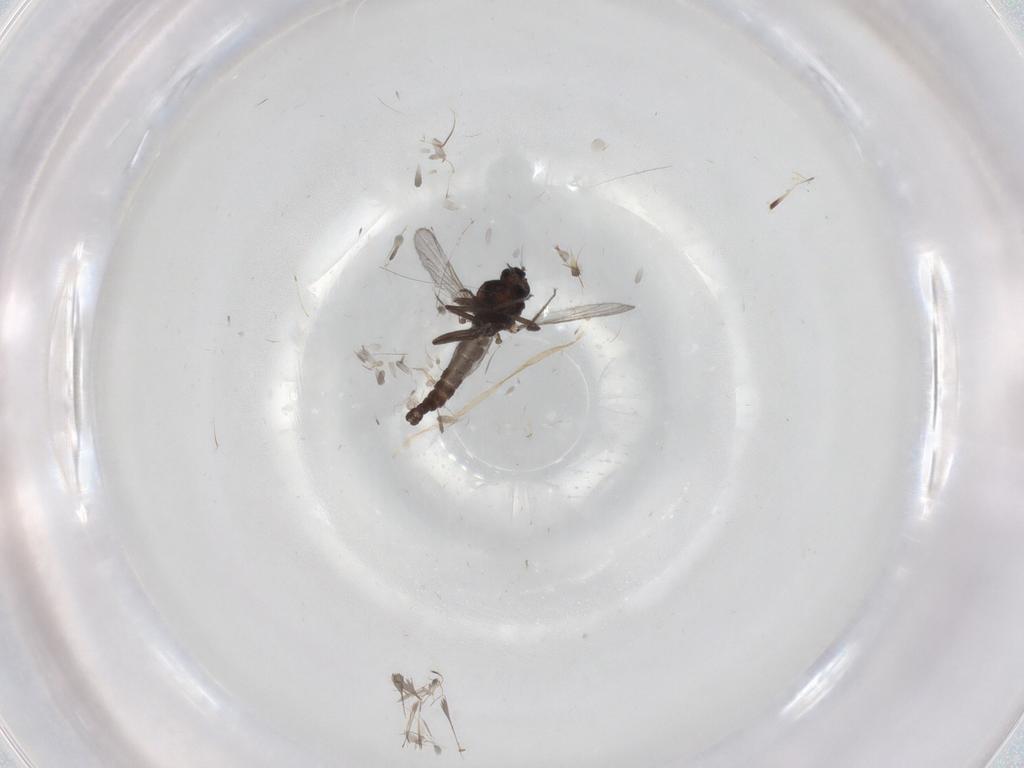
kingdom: Animalia
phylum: Arthropoda
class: Insecta
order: Diptera
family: Ceratopogonidae
